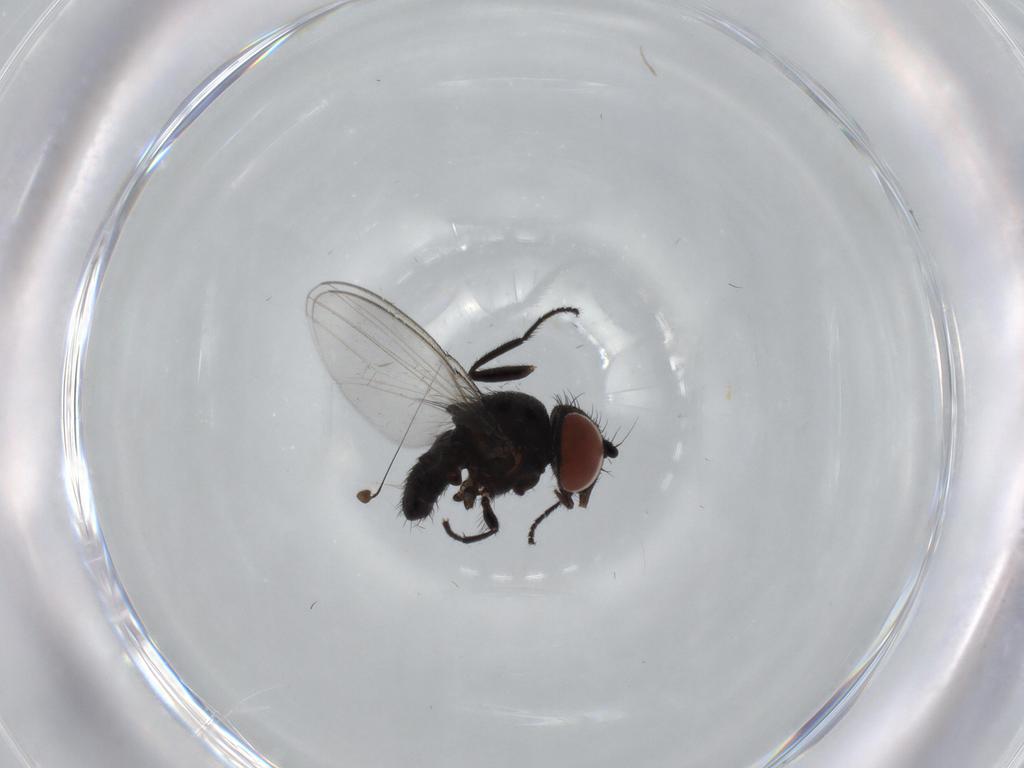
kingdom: Animalia
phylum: Arthropoda
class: Insecta
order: Diptera
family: Dolichopodidae
